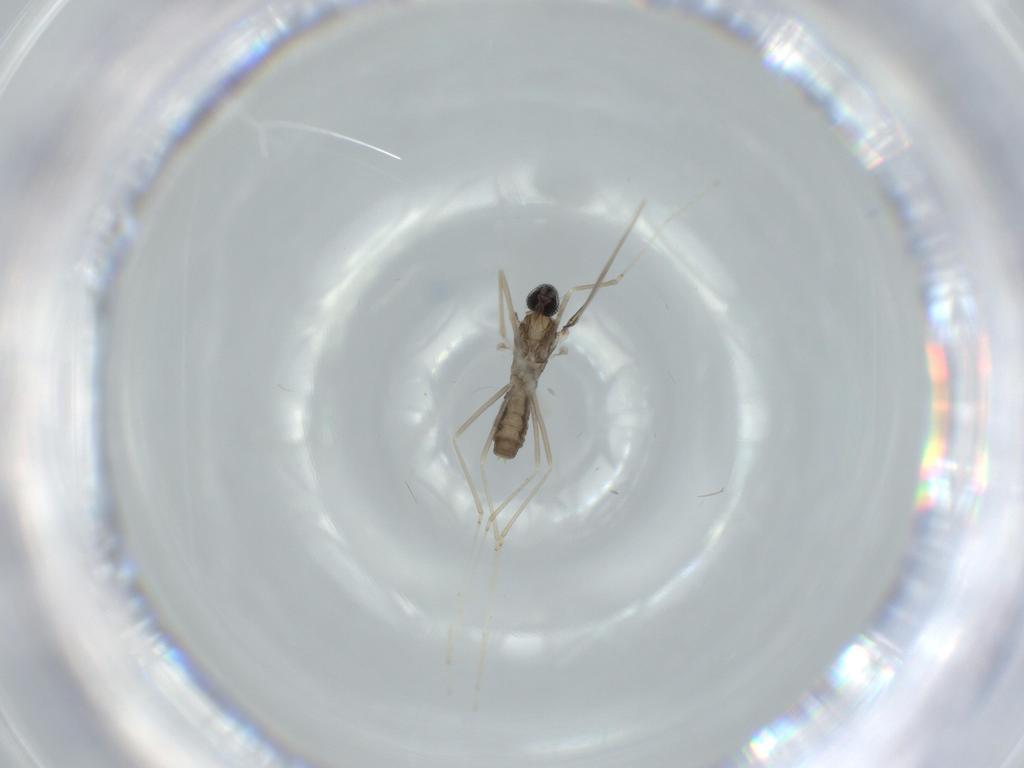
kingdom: Animalia
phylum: Arthropoda
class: Insecta
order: Diptera
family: Cecidomyiidae
